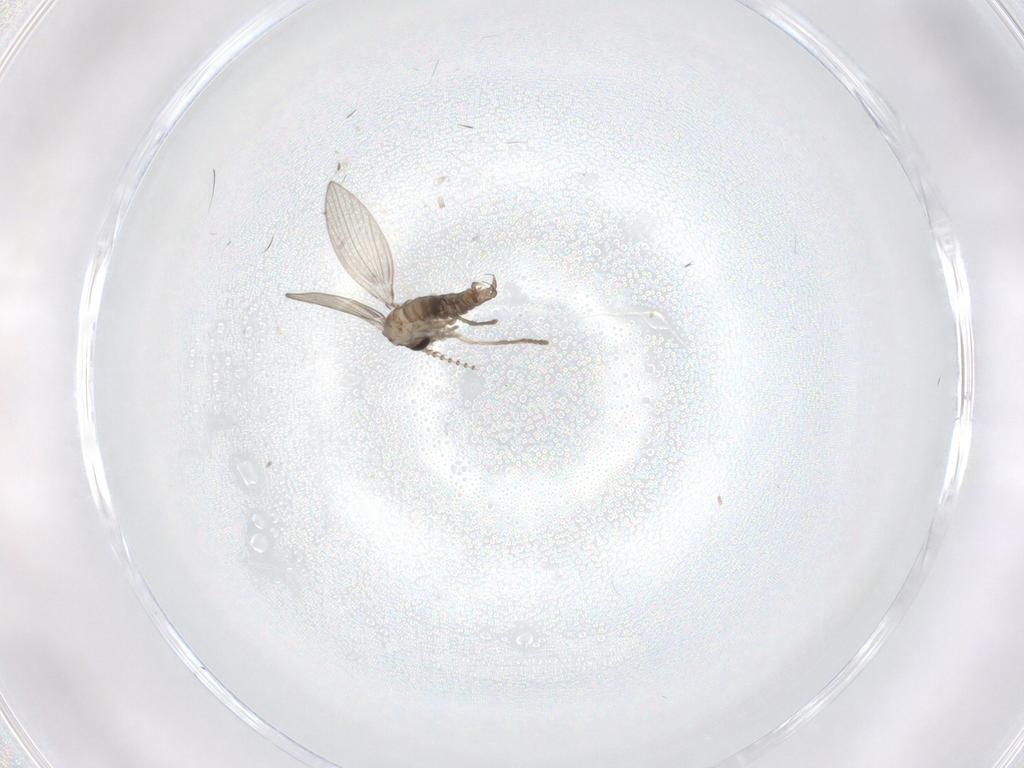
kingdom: Animalia
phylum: Arthropoda
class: Insecta
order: Diptera
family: Psychodidae
